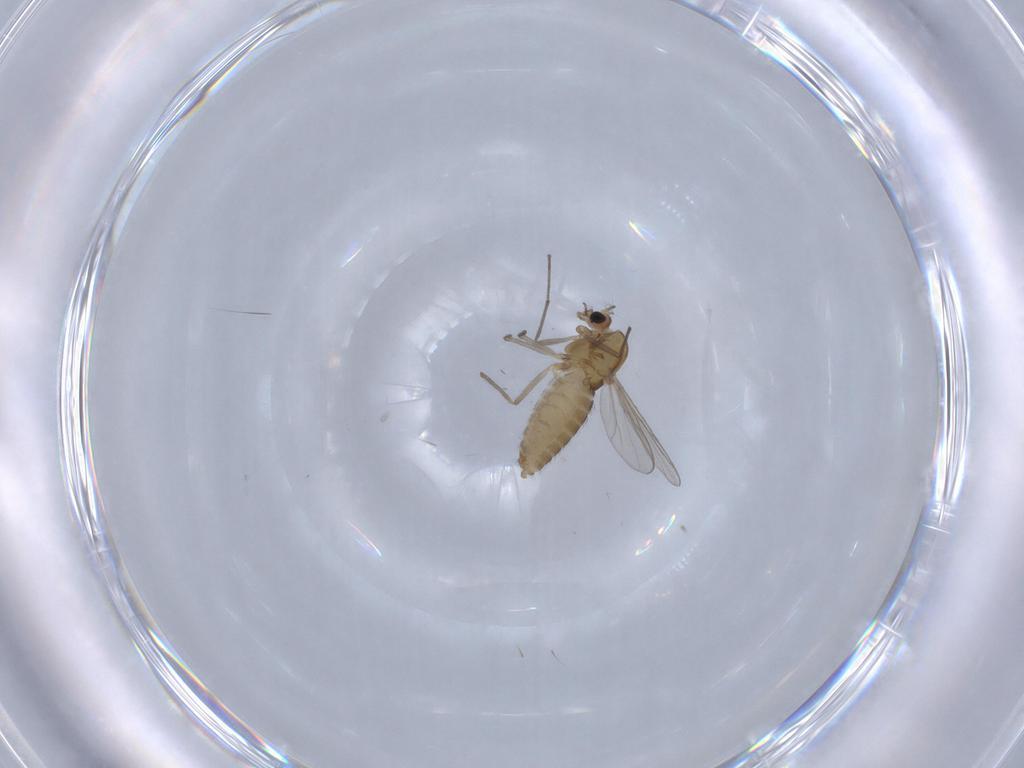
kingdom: Animalia
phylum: Arthropoda
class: Insecta
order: Diptera
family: Chironomidae
